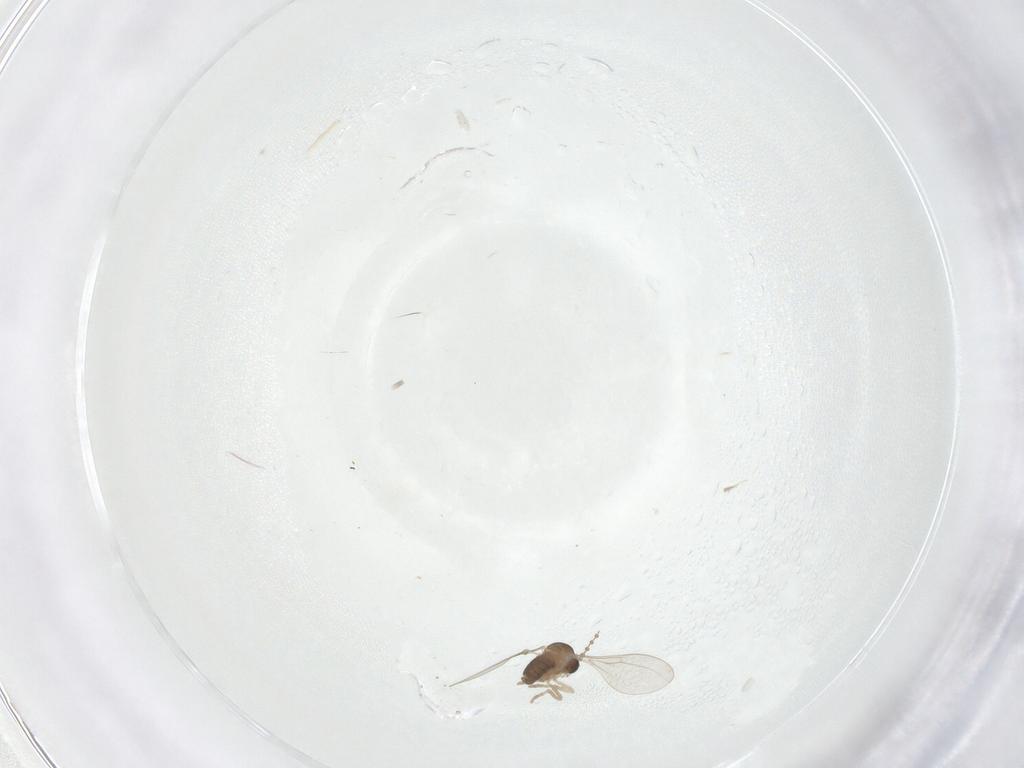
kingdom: Animalia
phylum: Arthropoda
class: Insecta
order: Diptera
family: Cecidomyiidae
